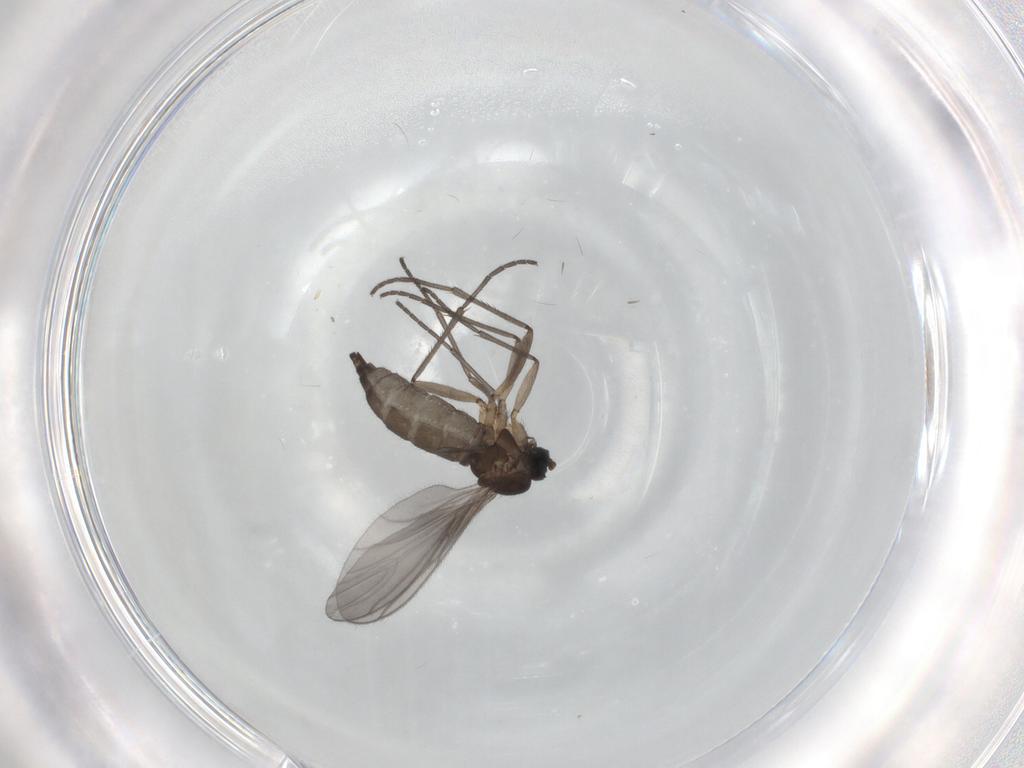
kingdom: Animalia
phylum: Arthropoda
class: Insecta
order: Diptera
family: Sciaridae
